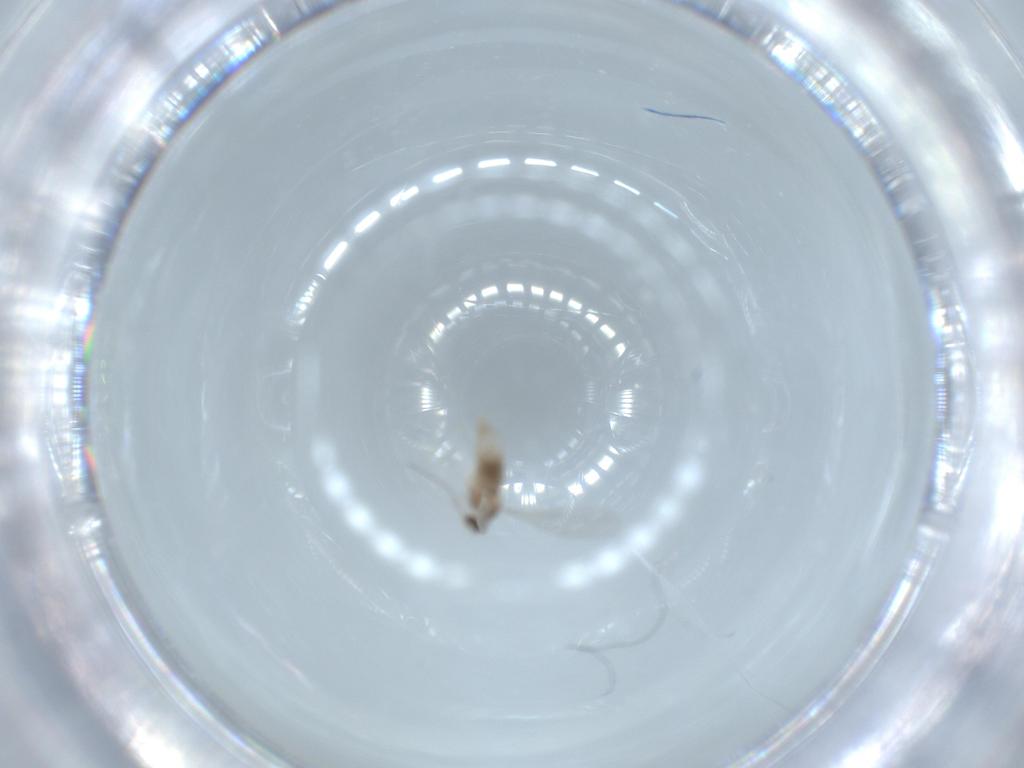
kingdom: Animalia
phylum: Arthropoda
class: Insecta
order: Diptera
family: Cecidomyiidae
